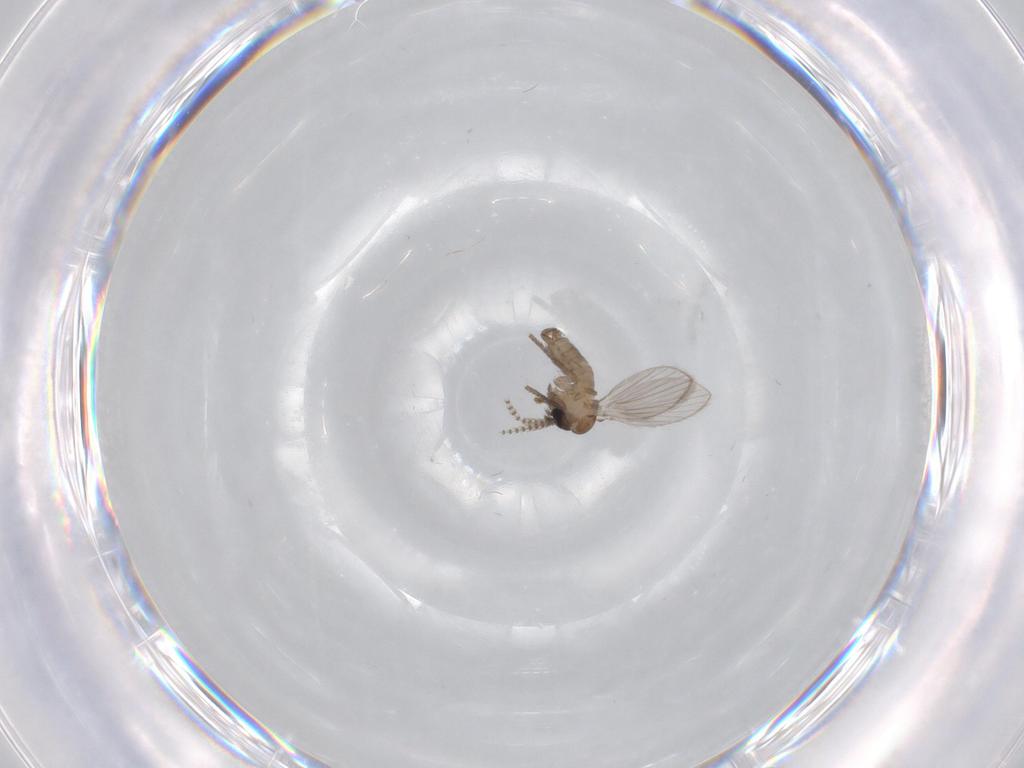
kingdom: Animalia
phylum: Arthropoda
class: Insecta
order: Diptera
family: Psychodidae
